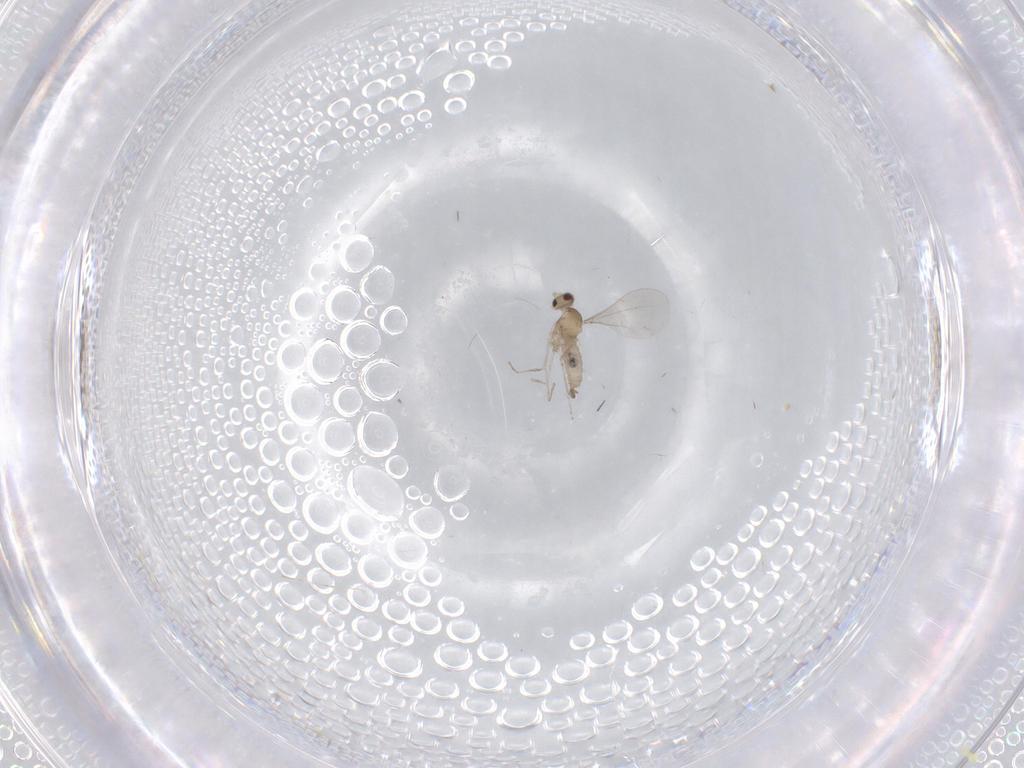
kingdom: Animalia
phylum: Arthropoda
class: Insecta
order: Diptera
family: Cecidomyiidae
